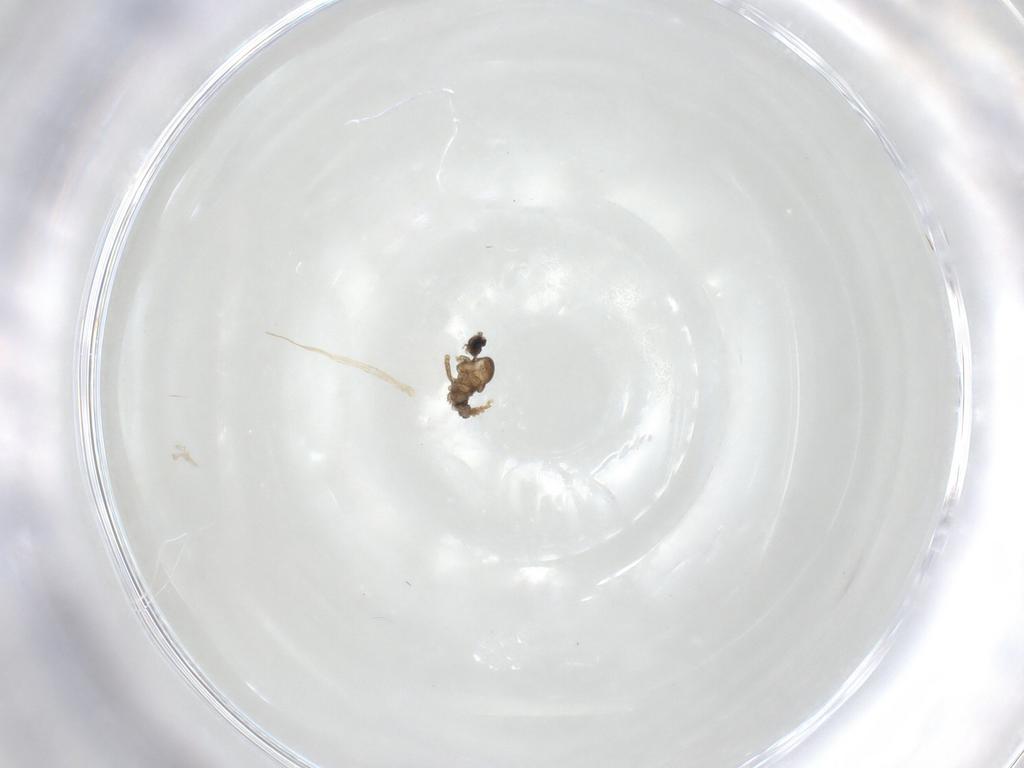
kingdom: Animalia
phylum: Arthropoda
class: Insecta
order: Diptera
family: Cecidomyiidae
